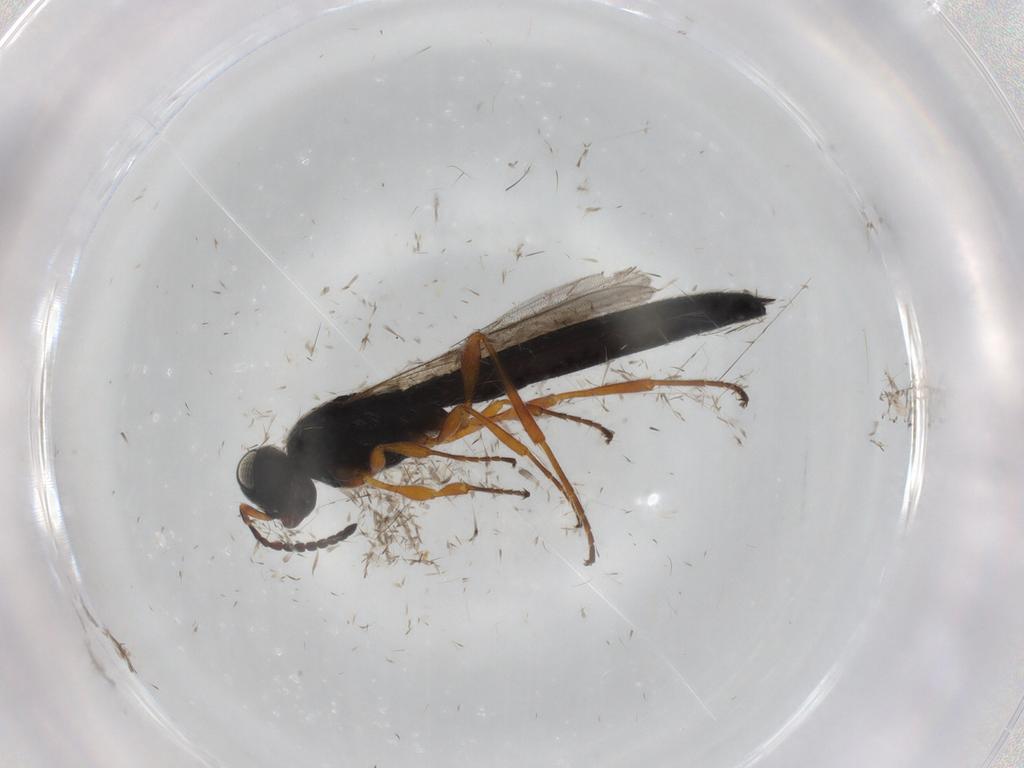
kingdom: Animalia
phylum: Arthropoda
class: Insecta
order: Hymenoptera
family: Scelionidae
